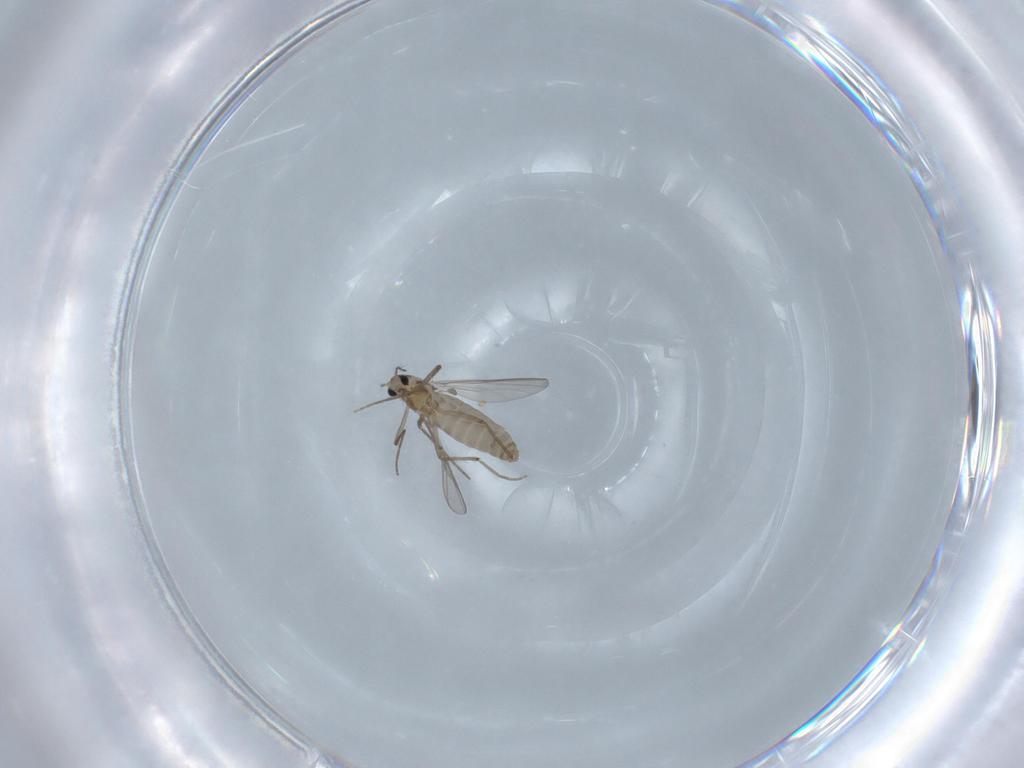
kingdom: Animalia
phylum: Arthropoda
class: Insecta
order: Diptera
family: Chironomidae
